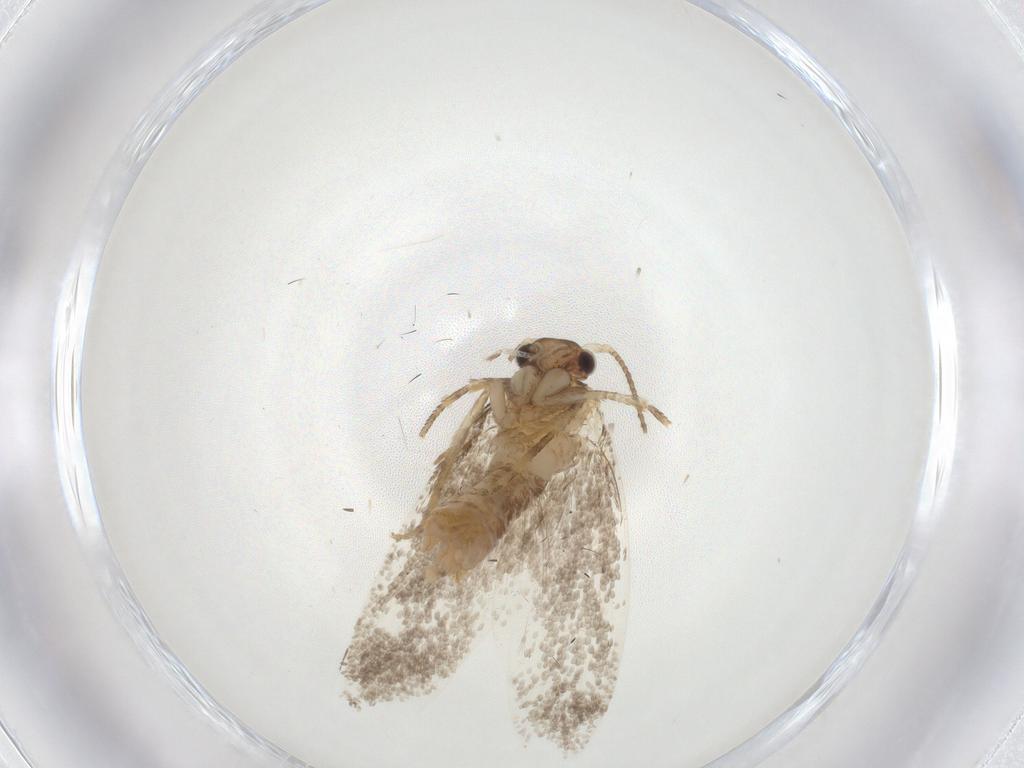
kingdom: Animalia
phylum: Arthropoda
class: Insecta
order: Lepidoptera
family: Dryadaulidae
